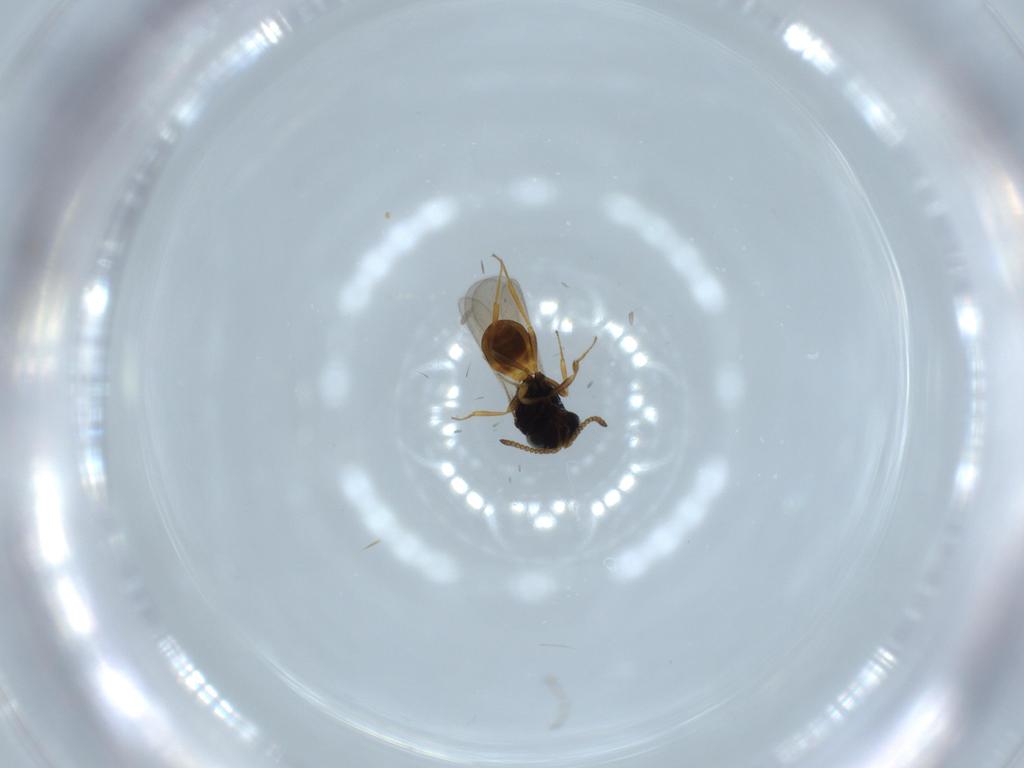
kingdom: Animalia
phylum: Arthropoda
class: Insecta
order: Hymenoptera
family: Scelionidae
